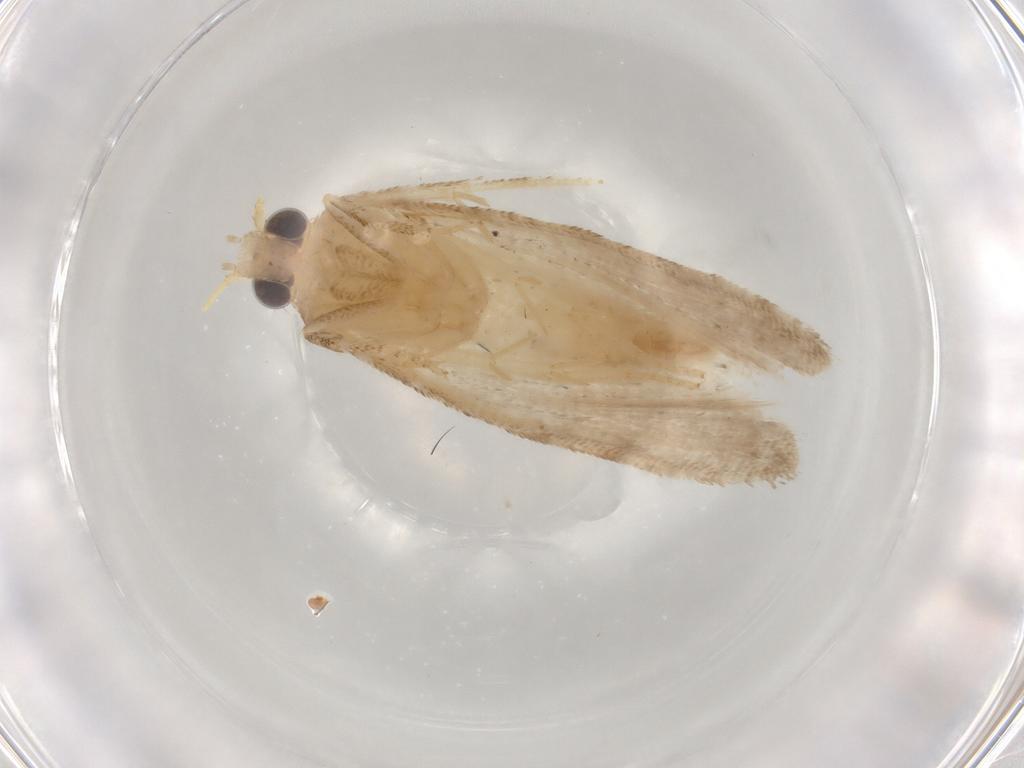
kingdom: Animalia
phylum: Arthropoda
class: Insecta
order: Lepidoptera
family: Tortricidae
